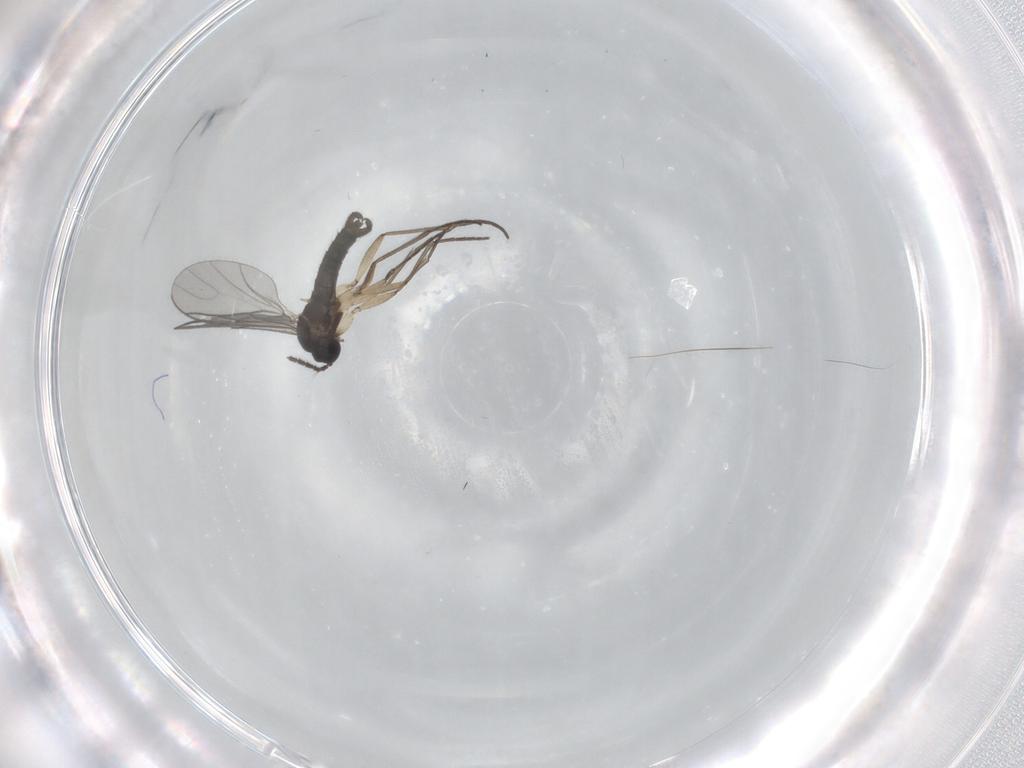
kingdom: Animalia
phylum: Arthropoda
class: Insecta
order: Diptera
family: Sciaridae
